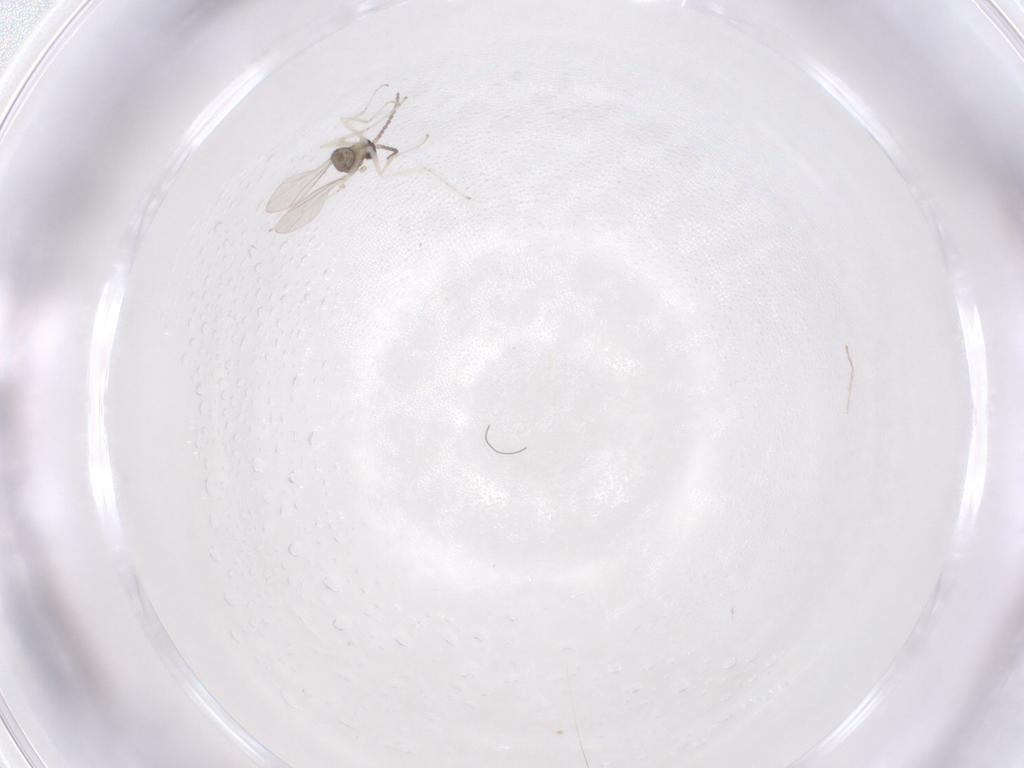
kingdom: Animalia
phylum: Arthropoda
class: Insecta
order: Diptera
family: Cecidomyiidae
